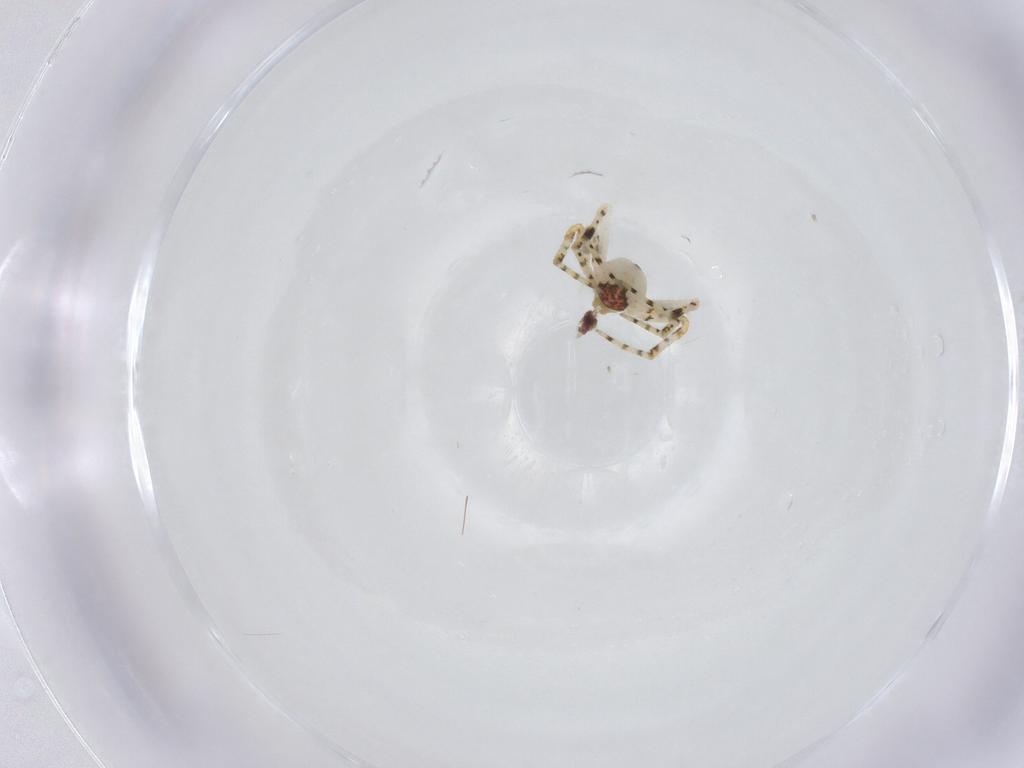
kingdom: Animalia
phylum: Arthropoda
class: Arachnida
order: Araneae
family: Theridiidae
